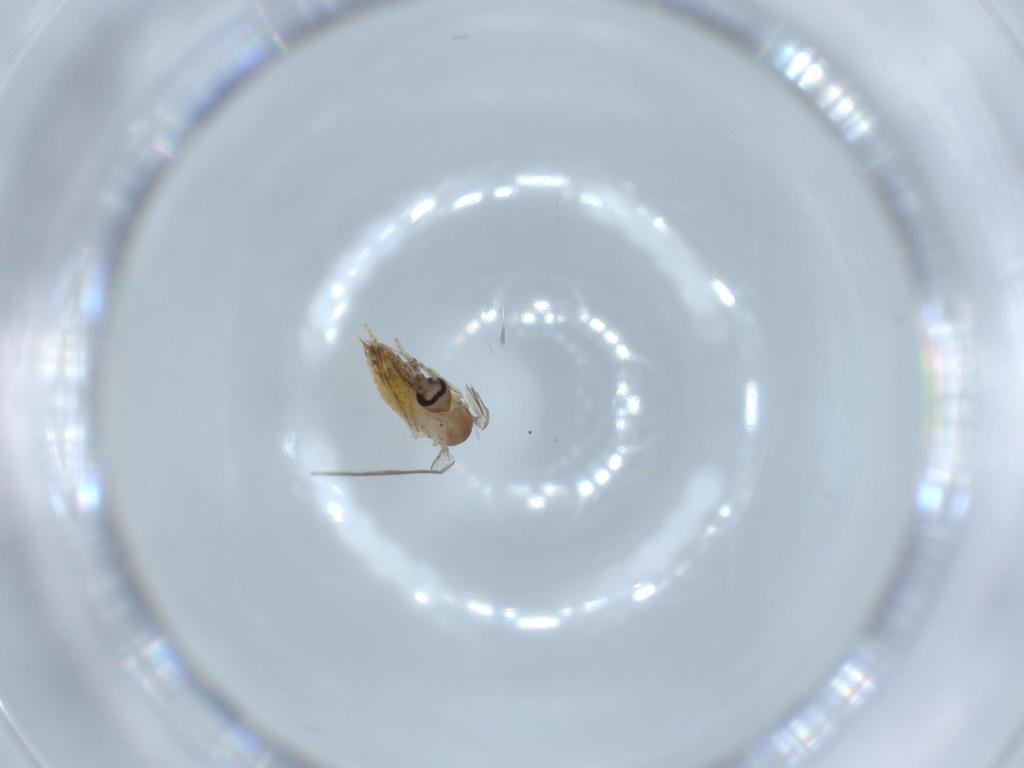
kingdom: Animalia
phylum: Arthropoda
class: Insecta
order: Diptera
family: Psychodidae
